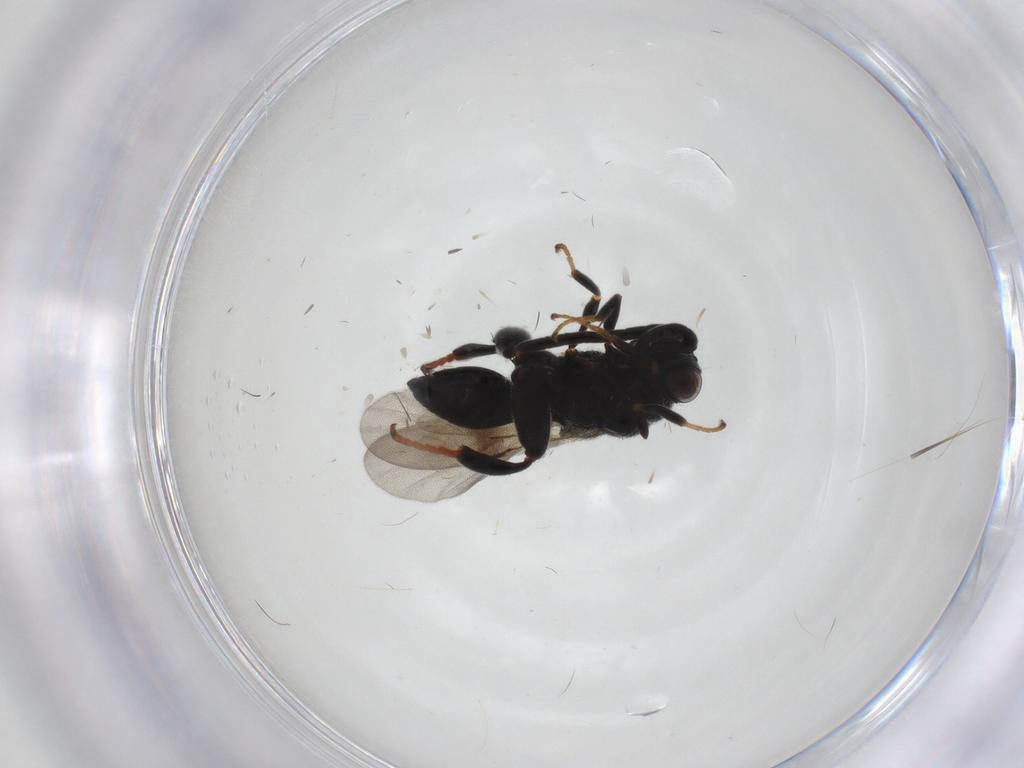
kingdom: Animalia
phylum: Arthropoda
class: Insecta
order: Hymenoptera
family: Chalcididae
